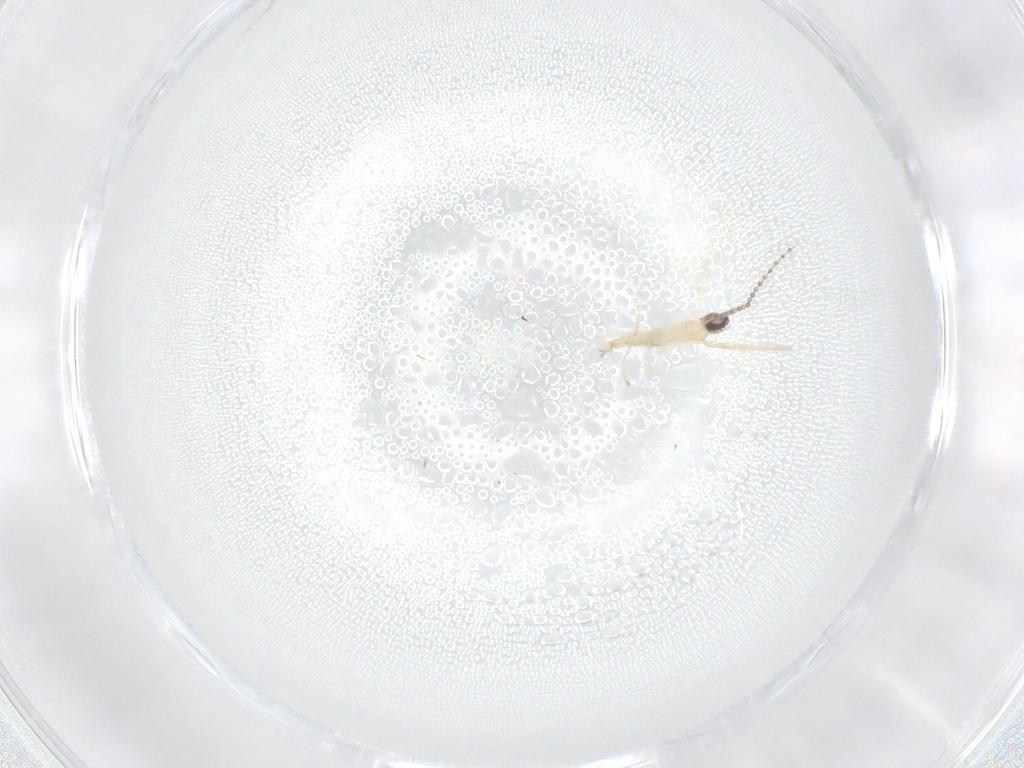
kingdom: Animalia
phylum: Arthropoda
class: Insecta
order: Diptera
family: Cecidomyiidae
